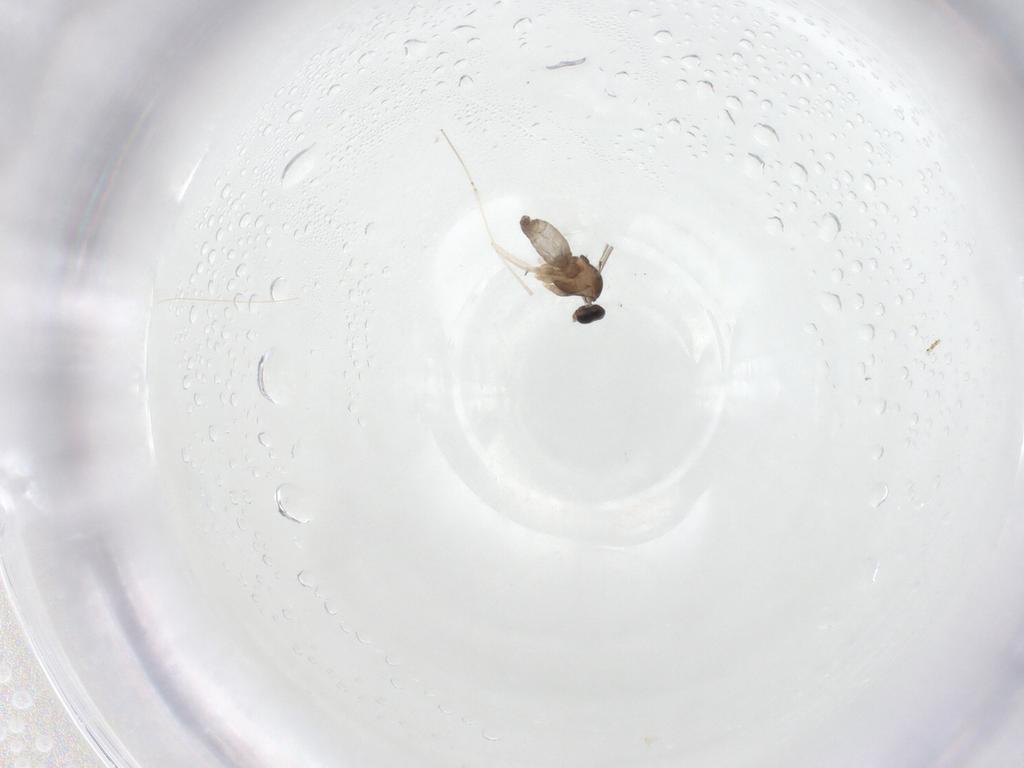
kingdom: Animalia
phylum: Arthropoda
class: Insecta
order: Diptera
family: Cecidomyiidae
